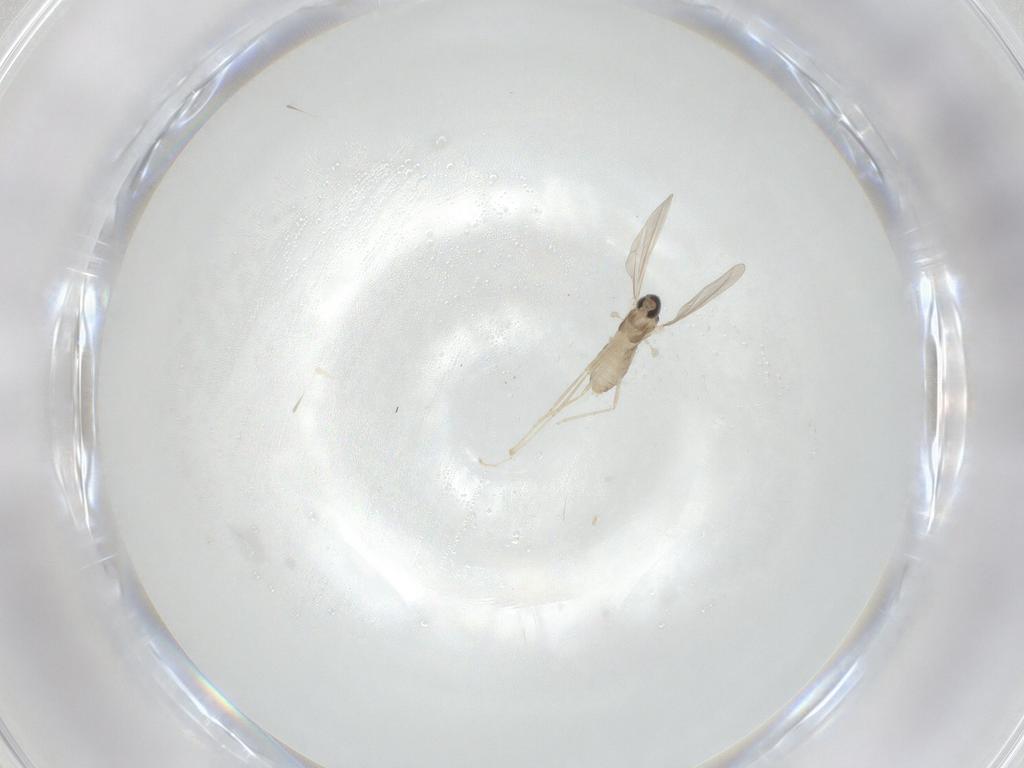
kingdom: Animalia
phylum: Arthropoda
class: Insecta
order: Diptera
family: Cecidomyiidae
